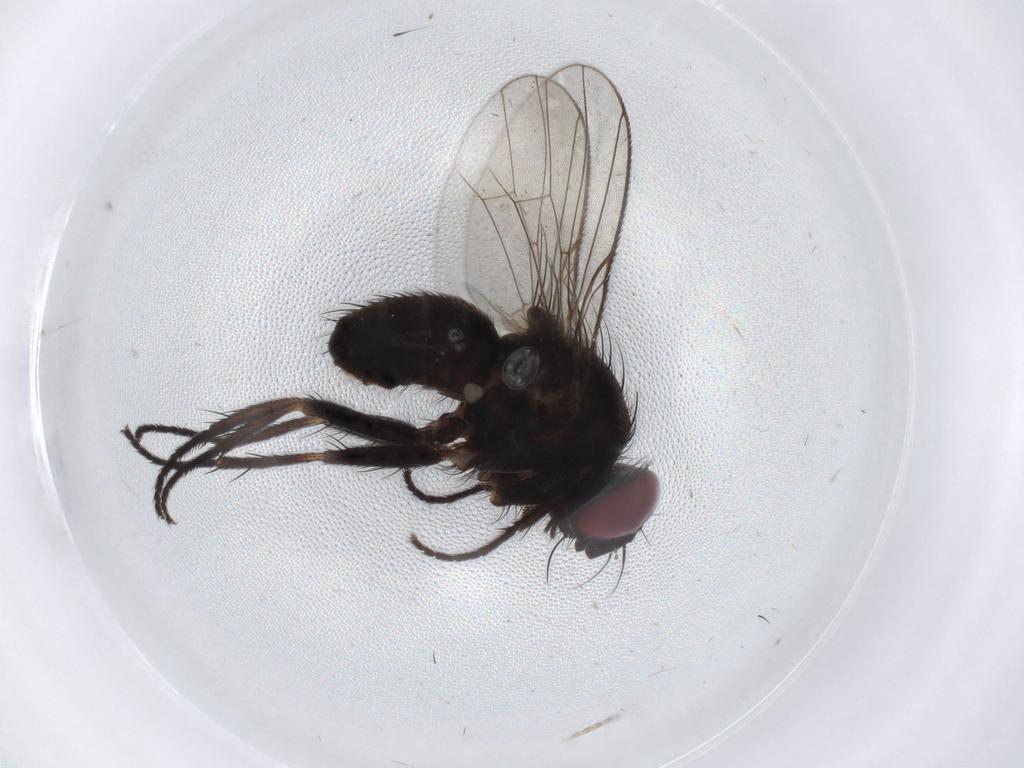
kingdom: Animalia
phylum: Arthropoda
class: Insecta
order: Diptera
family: Muscidae
